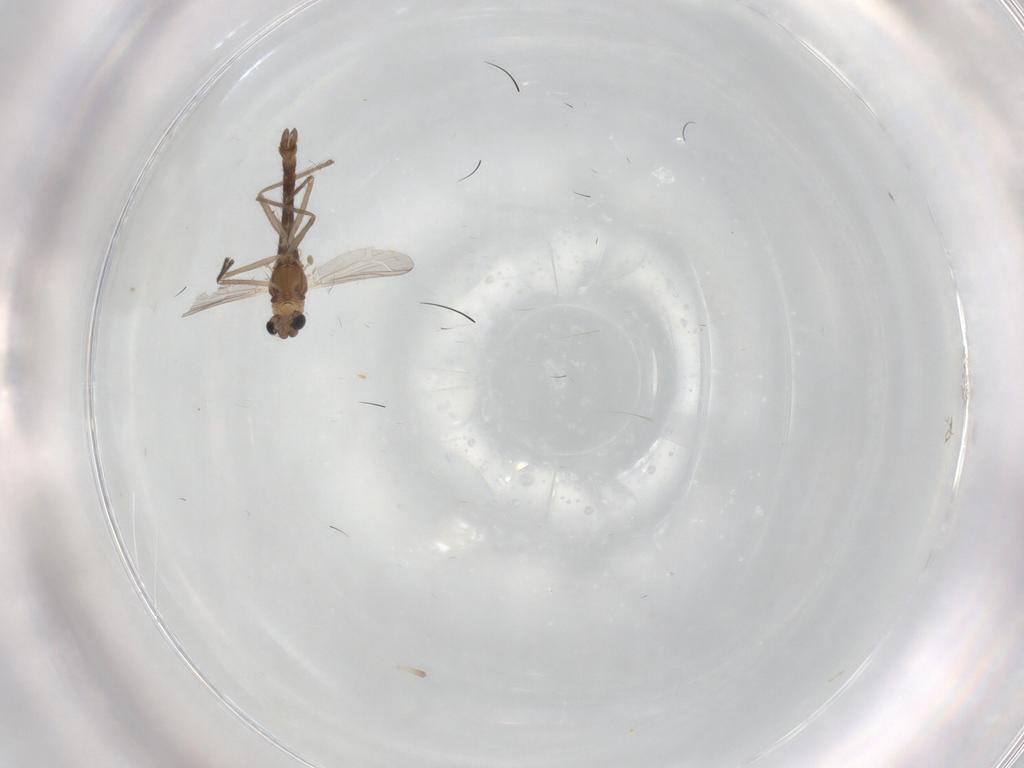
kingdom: Animalia
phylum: Arthropoda
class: Insecta
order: Diptera
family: Chironomidae
